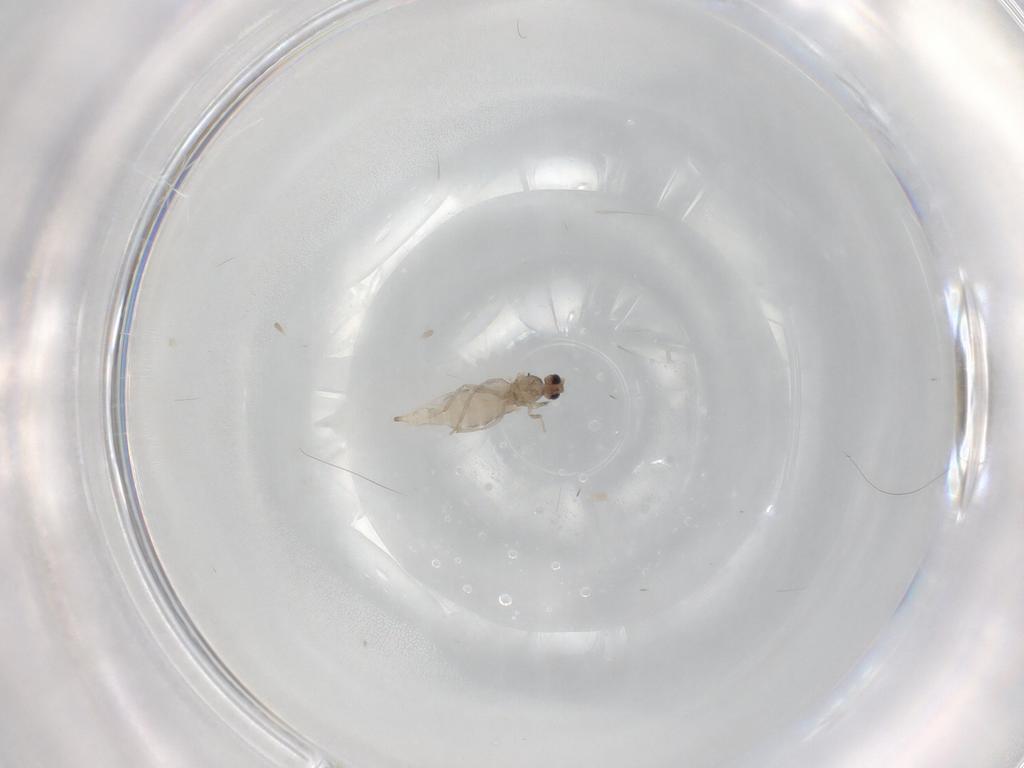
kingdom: Animalia
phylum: Arthropoda
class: Insecta
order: Diptera
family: Cecidomyiidae
